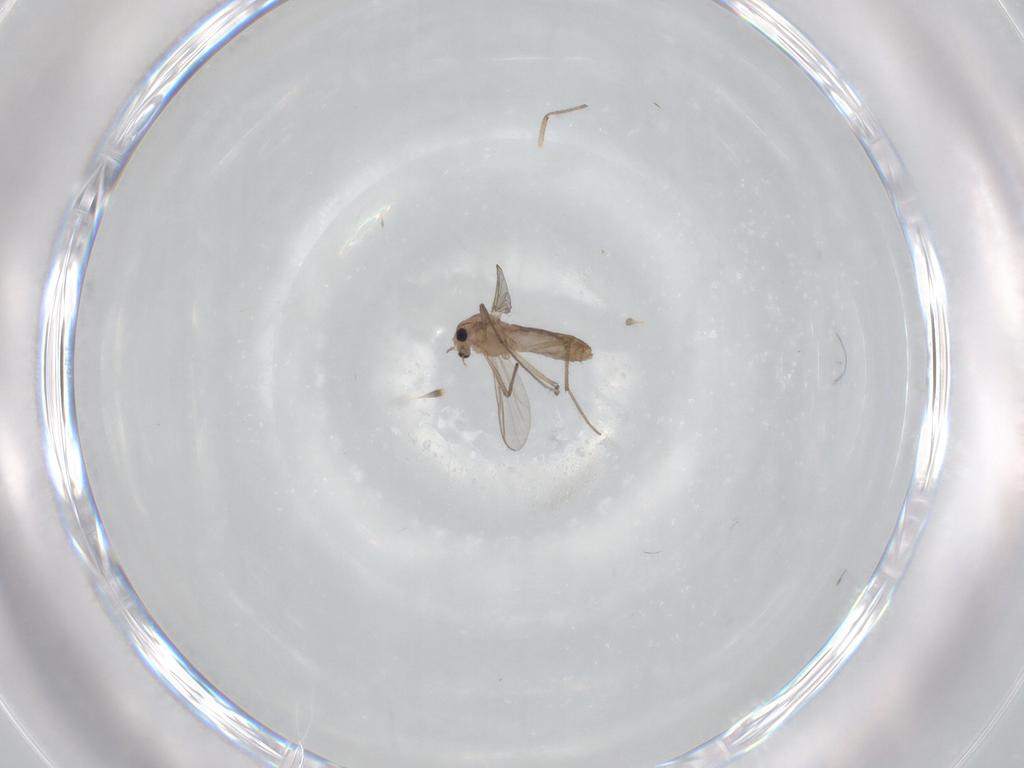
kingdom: Animalia
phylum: Arthropoda
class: Insecta
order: Diptera
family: Chironomidae
